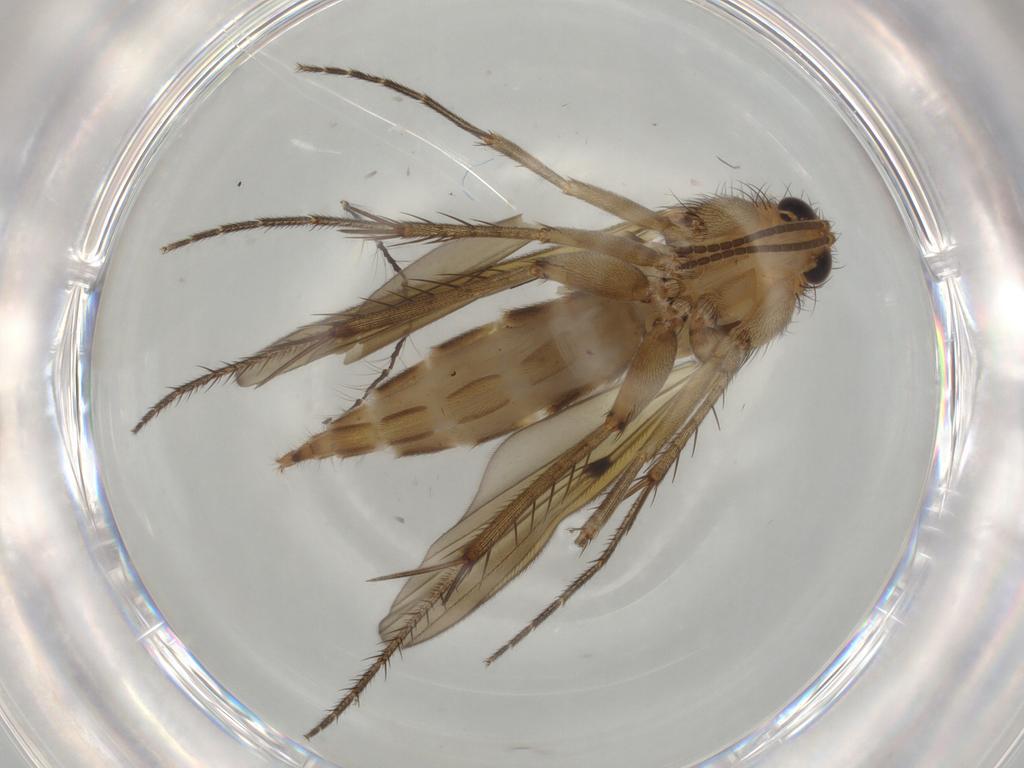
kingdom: Animalia
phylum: Arthropoda
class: Insecta
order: Diptera
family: Mycetophilidae
